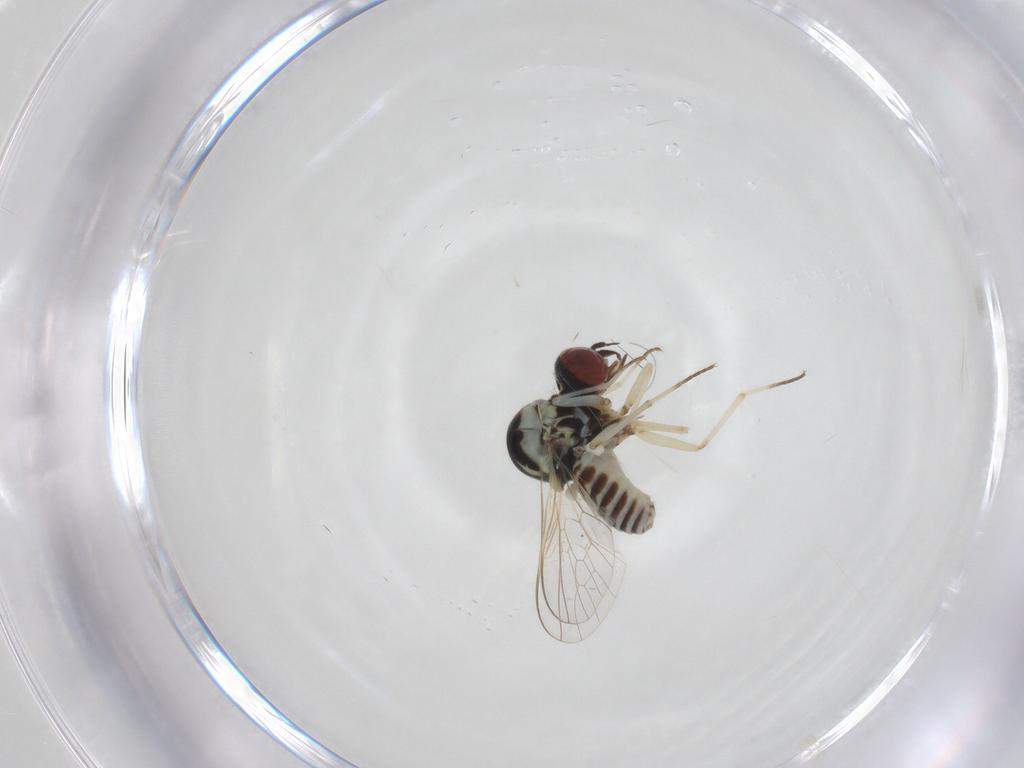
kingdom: Animalia
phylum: Arthropoda
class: Insecta
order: Diptera
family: Mythicomyiidae
